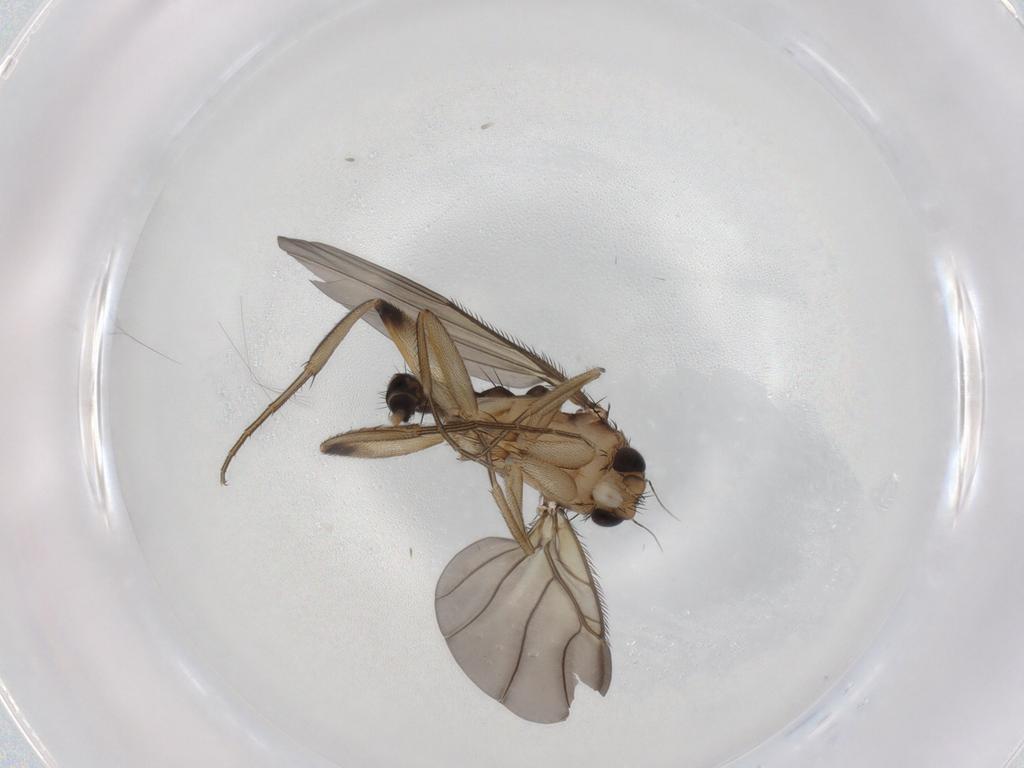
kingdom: Animalia
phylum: Arthropoda
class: Insecta
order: Diptera
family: Phoridae
